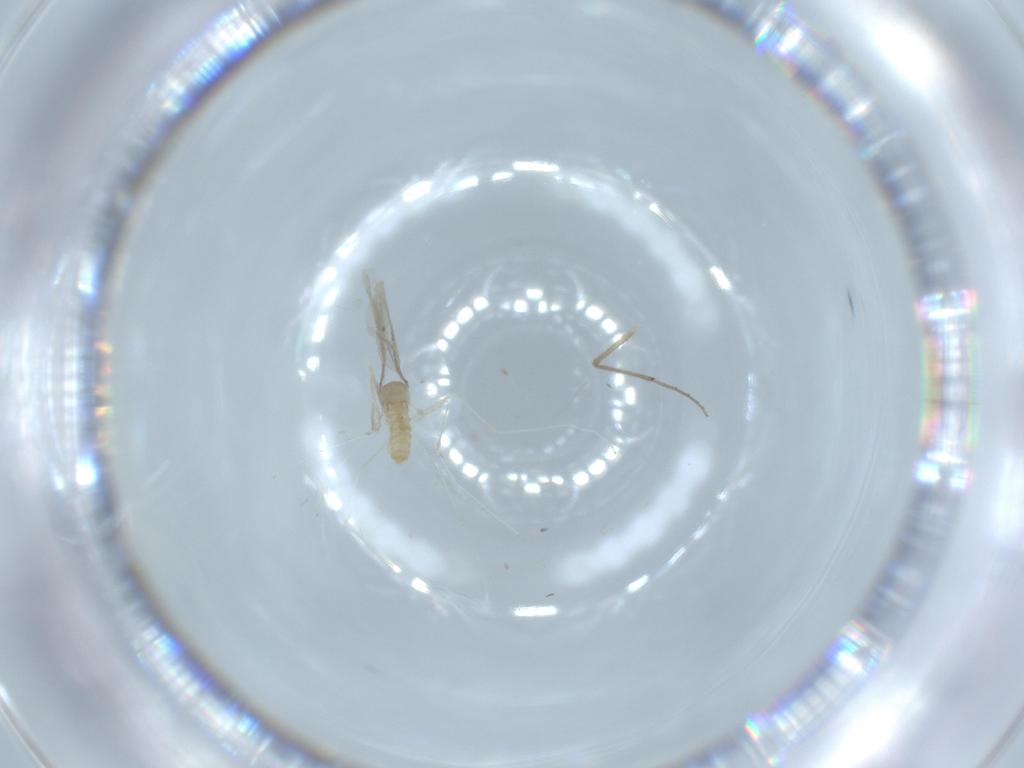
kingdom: Animalia
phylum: Arthropoda
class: Insecta
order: Diptera
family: Cecidomyiidae
